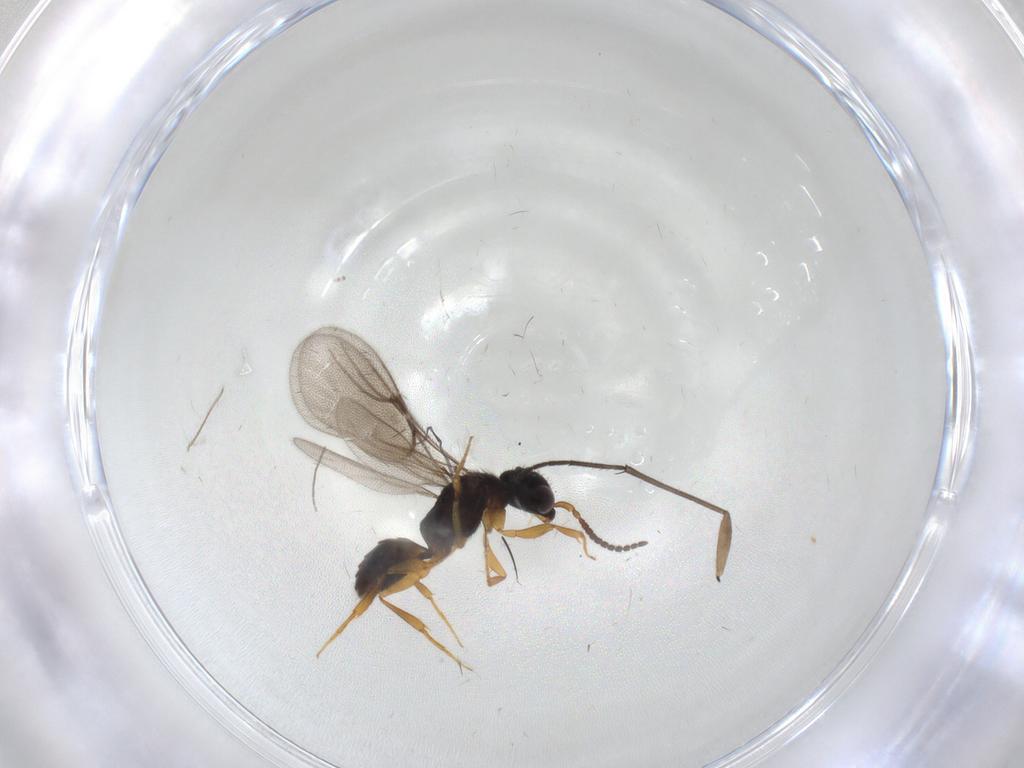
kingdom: Animalia
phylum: Arthropoda
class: Insecta
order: Hymenoptera
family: Bethylidae
